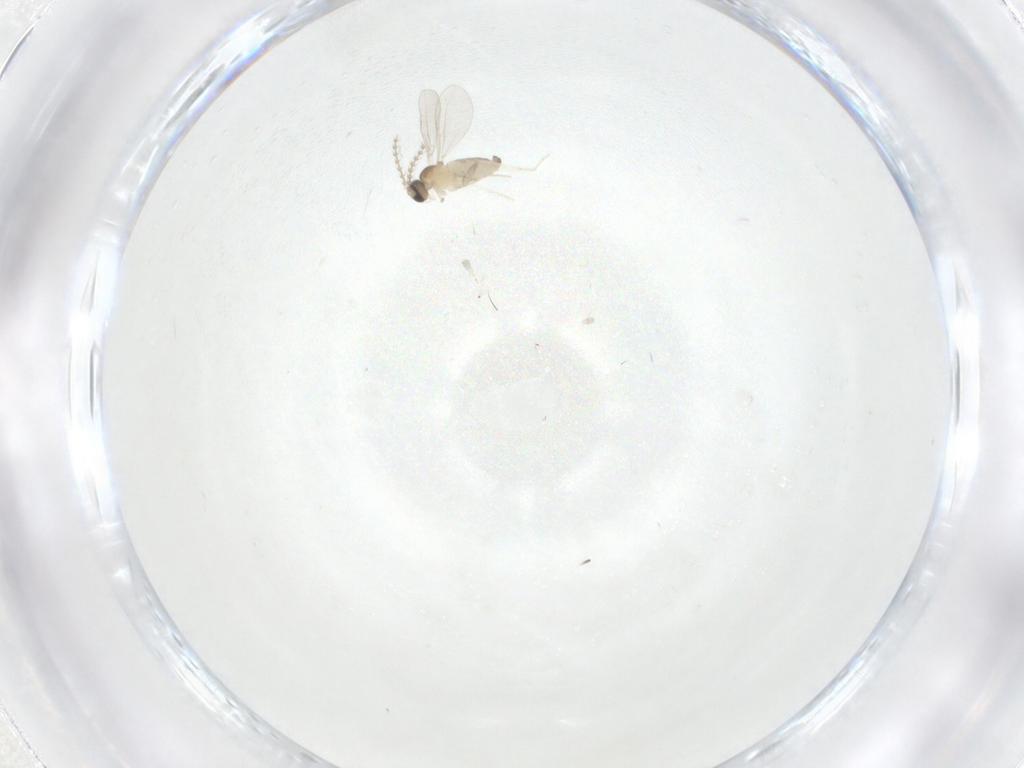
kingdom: Animalia
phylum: Arthropoda
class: Insecta
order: Diptera
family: Cecidomyiidae
